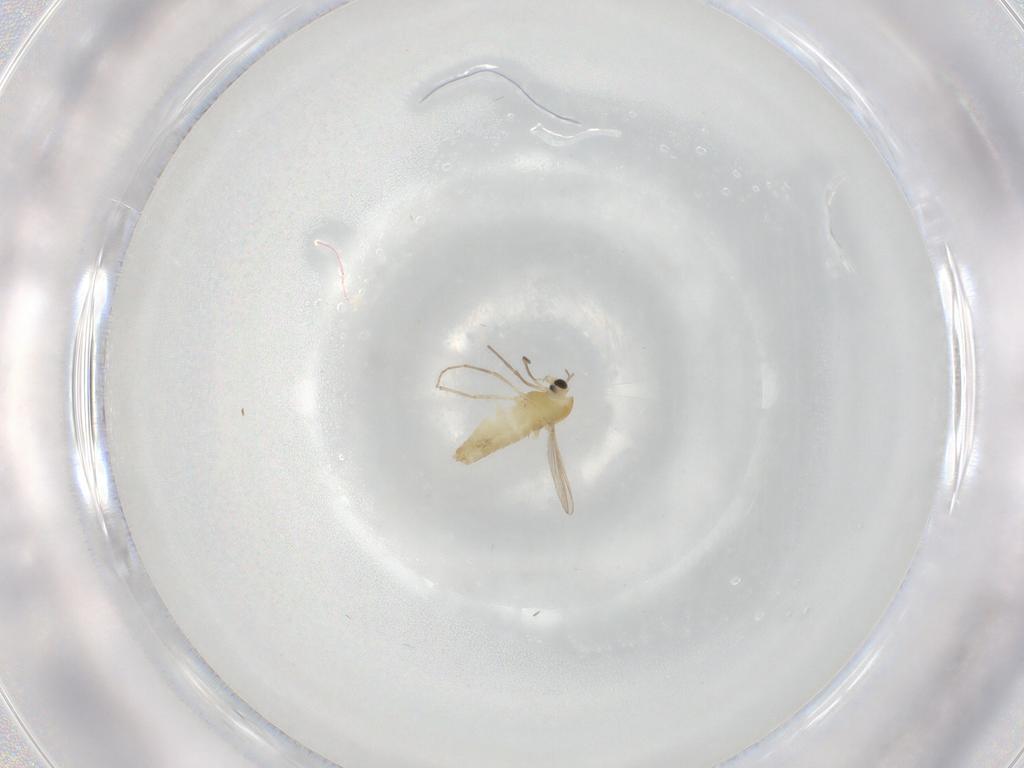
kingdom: Animalia
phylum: Arthropoda
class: Insecta
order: Diptera
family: Chironomidae
